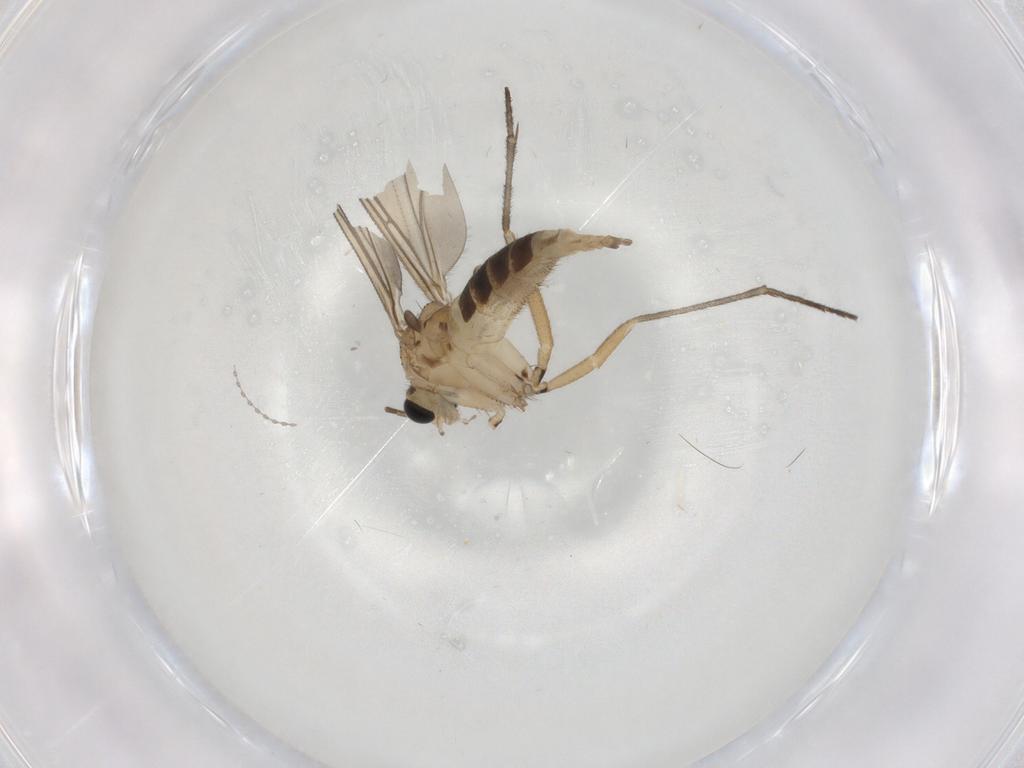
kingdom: Animalia
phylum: Arthropoda
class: Insecta
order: Diptera
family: Sciaridae
